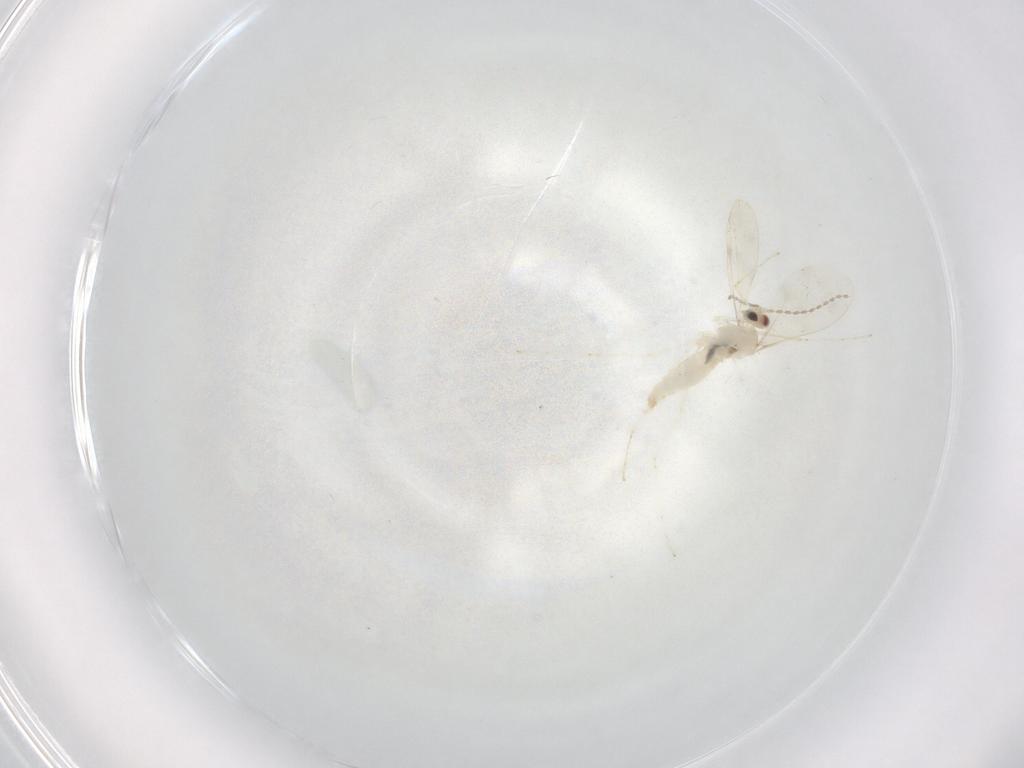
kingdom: Animalia
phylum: Arthropoda
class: Insecta
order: Diptera
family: Cecidomyiidae
